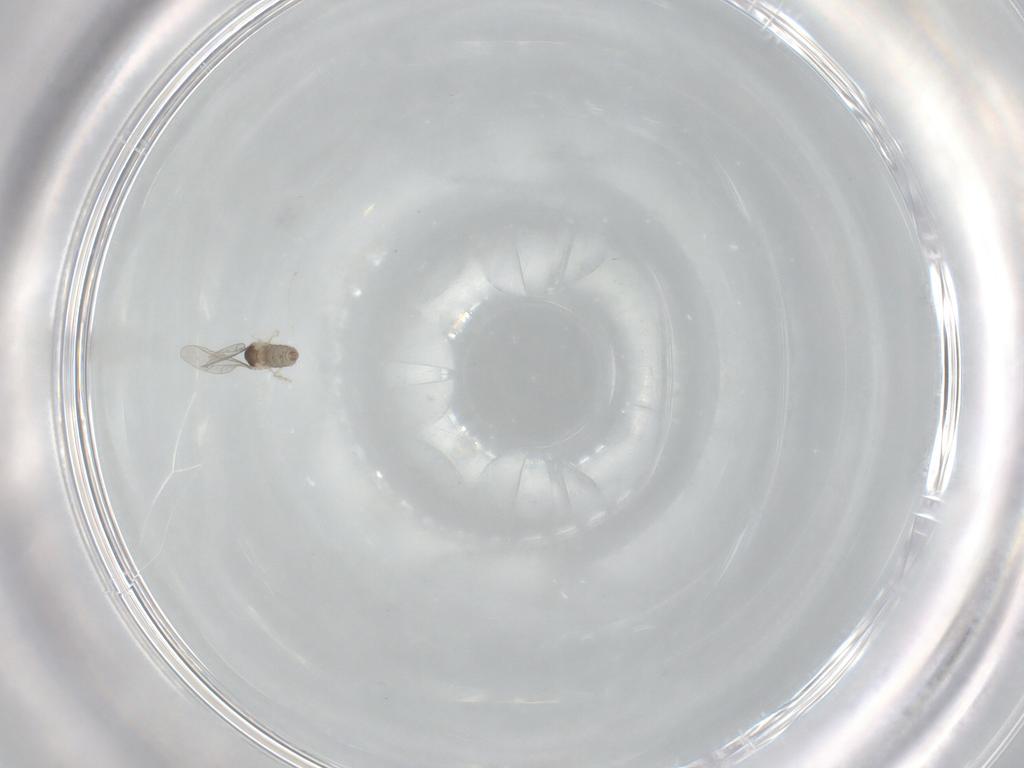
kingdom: Animalia
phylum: Arthropoda
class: Insecta
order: Diptera
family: Cecidomyiidae
